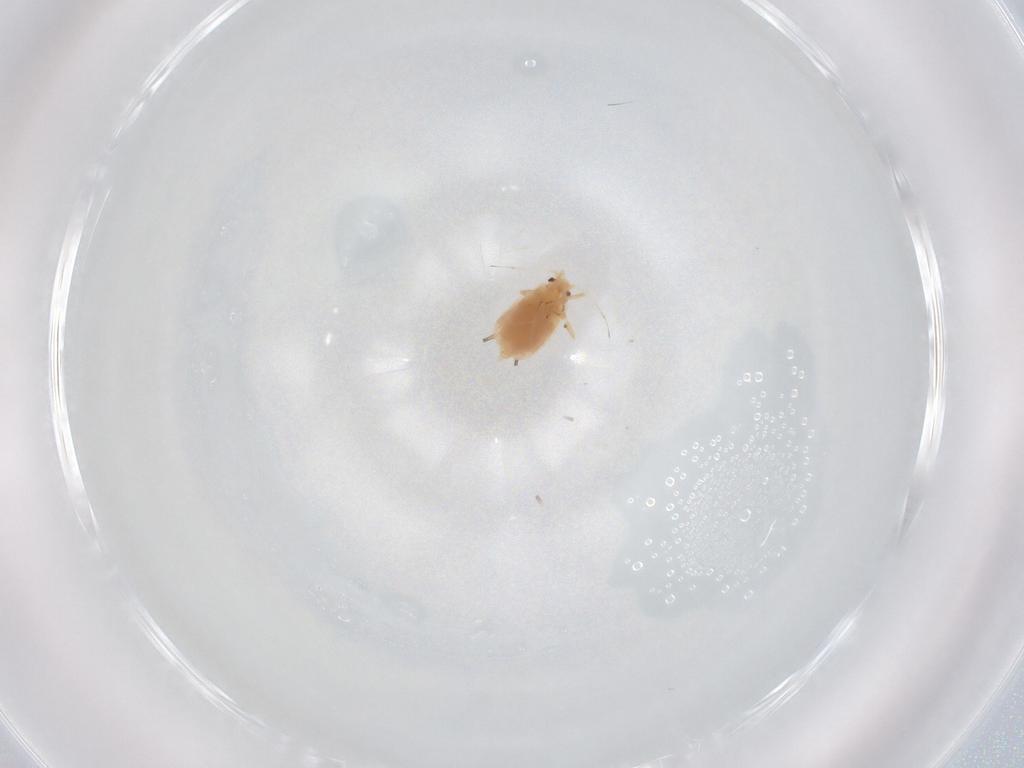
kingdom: Animalia
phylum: Arthropoda
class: Insecta
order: Hemiptera
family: Aphididae
